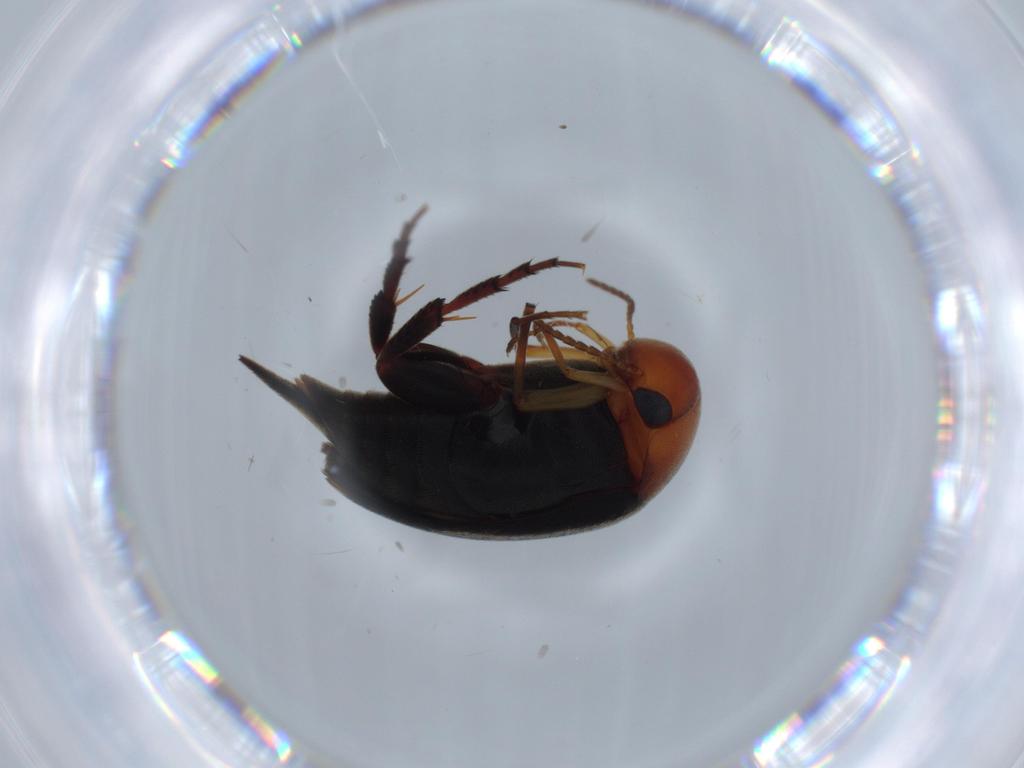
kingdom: Animalia
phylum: Arthropoda
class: Insecta
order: Coleoptera
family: Mordellidae
